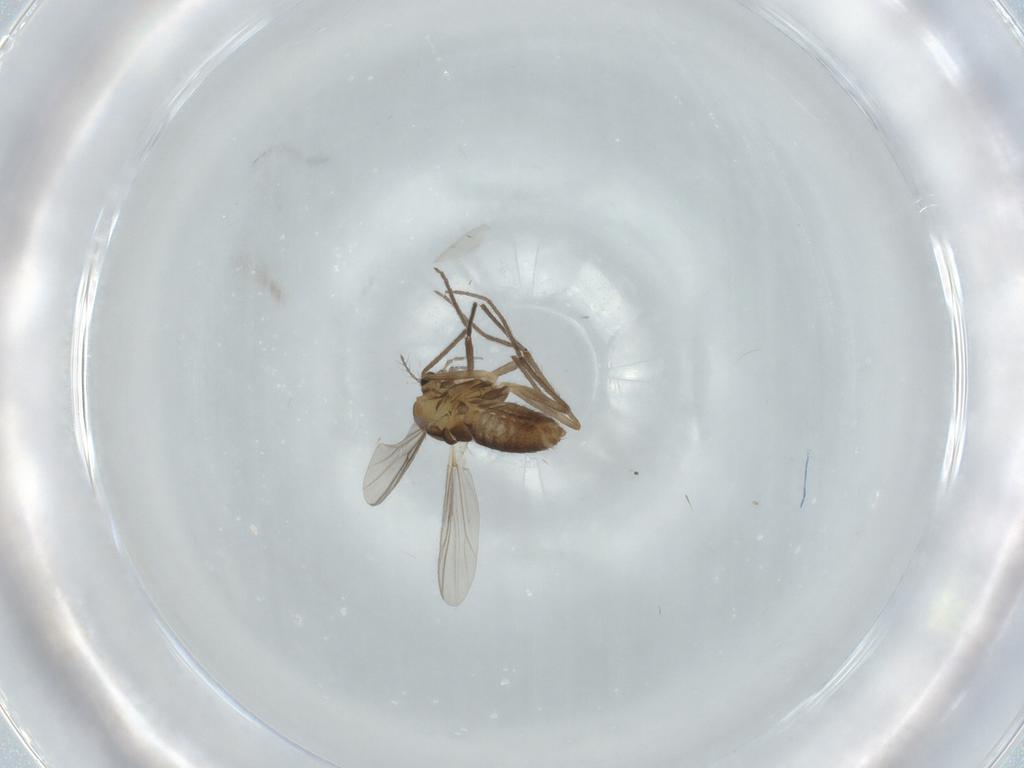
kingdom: Animalia
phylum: Arthropoda
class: Insecta
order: Diptera
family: Chironomidae
